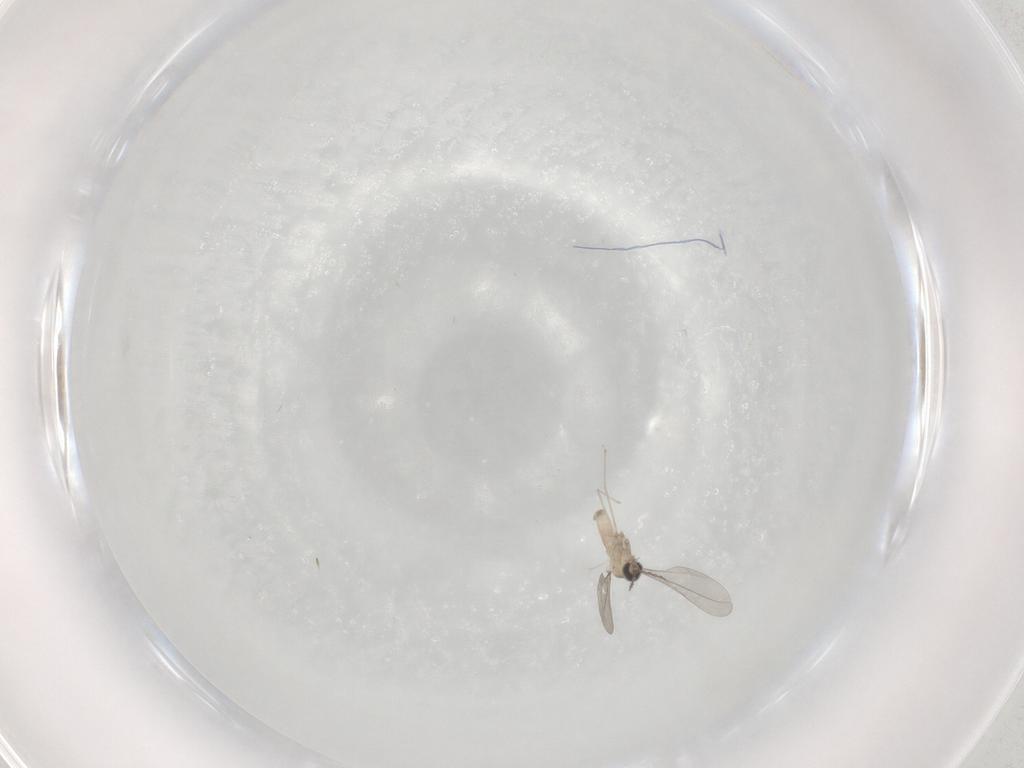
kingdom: Animalia
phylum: Arthropoda
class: Insecta
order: Diptera
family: Cecidomyiidae
